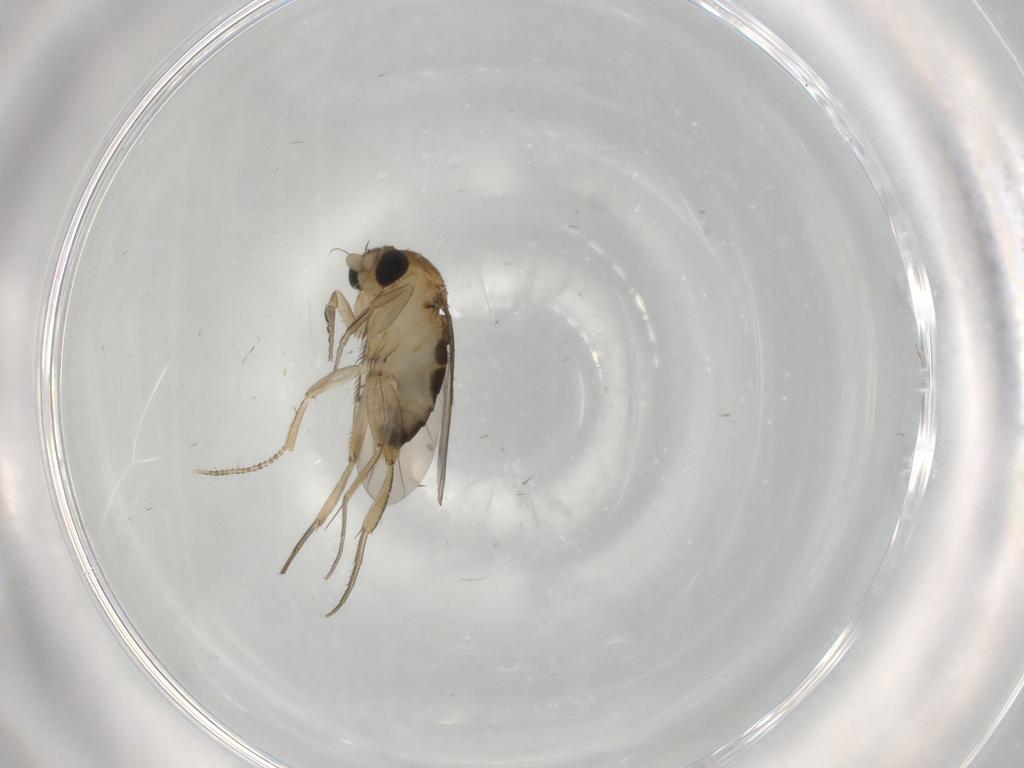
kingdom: Animalia
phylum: Arthropoda
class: Insecta
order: Diptera
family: Phoridae
